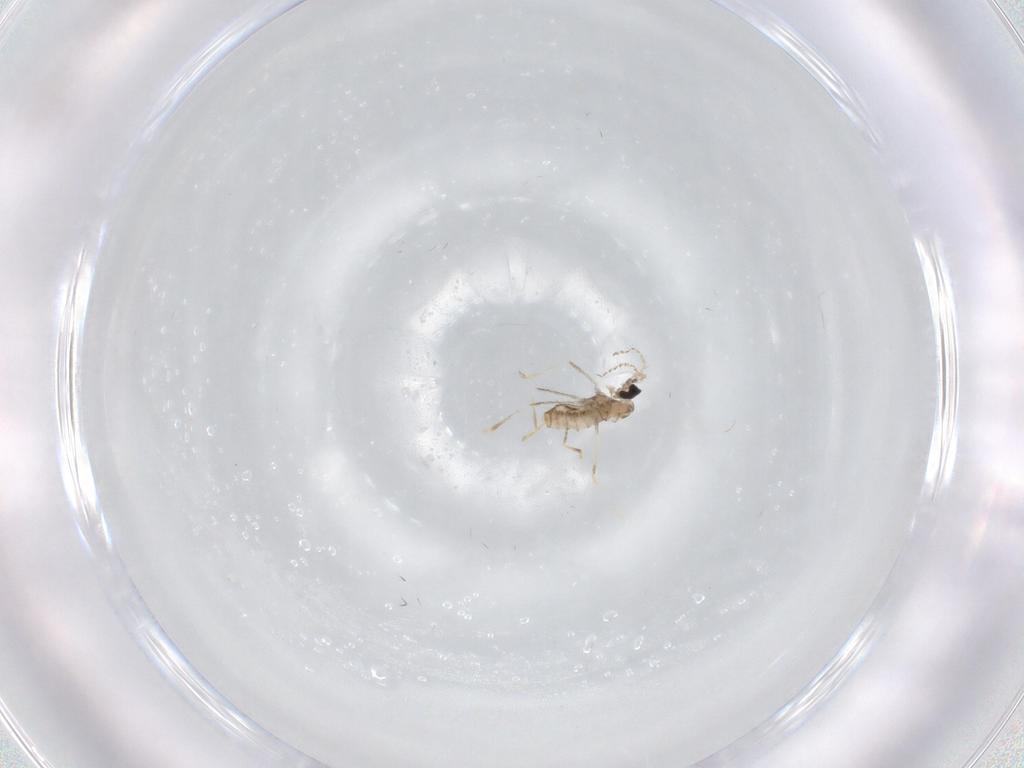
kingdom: Animalia
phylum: Arthropoda
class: Insecta
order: Diptera
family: Cecidomyiidae
